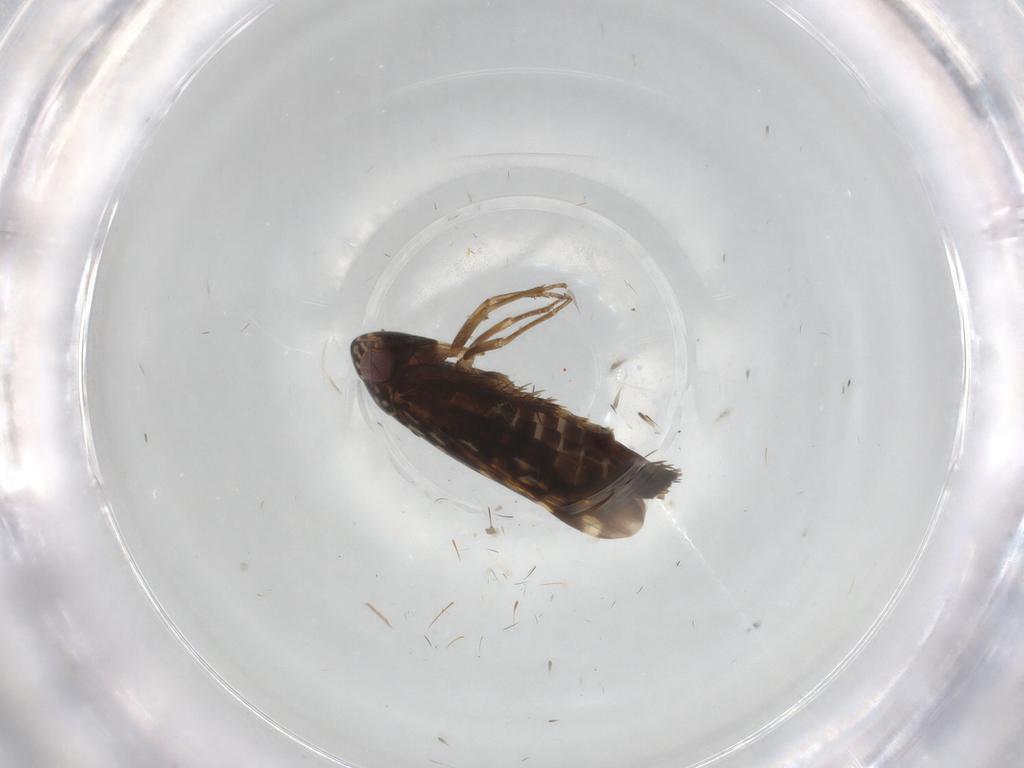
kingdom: Animalia
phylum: Arthropoda
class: Insecta
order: Hemiptera
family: Cicadellidae
